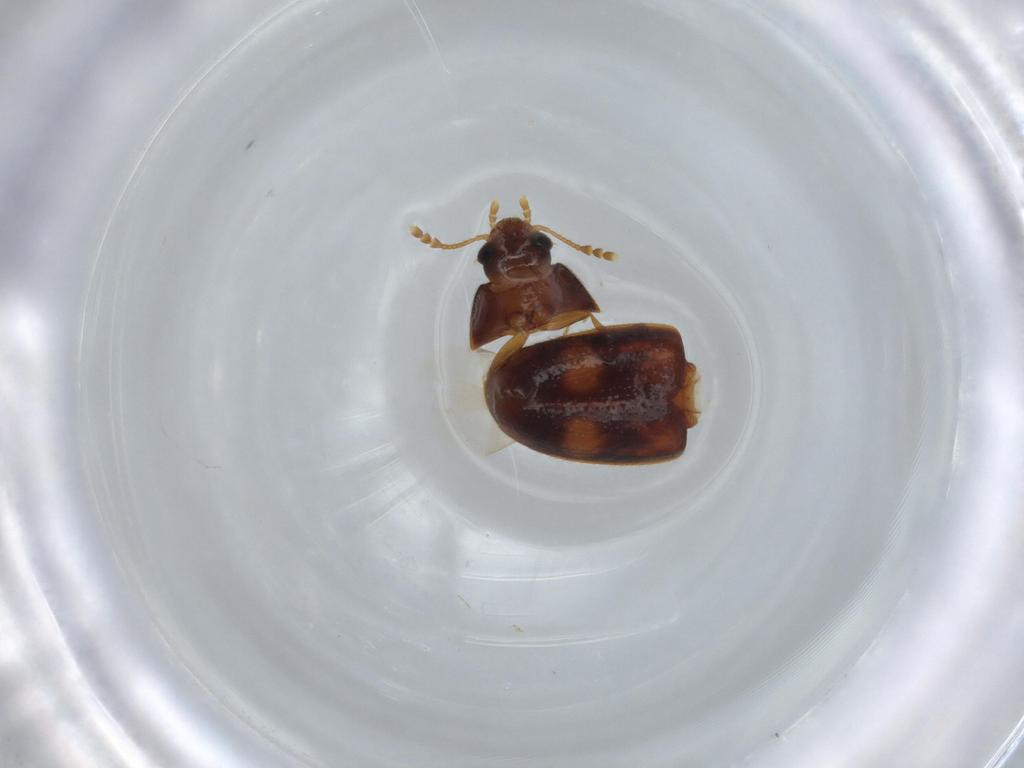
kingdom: Animalia
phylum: Arthropoda
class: Insecta
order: Coleoptera
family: Mycetophagidae
